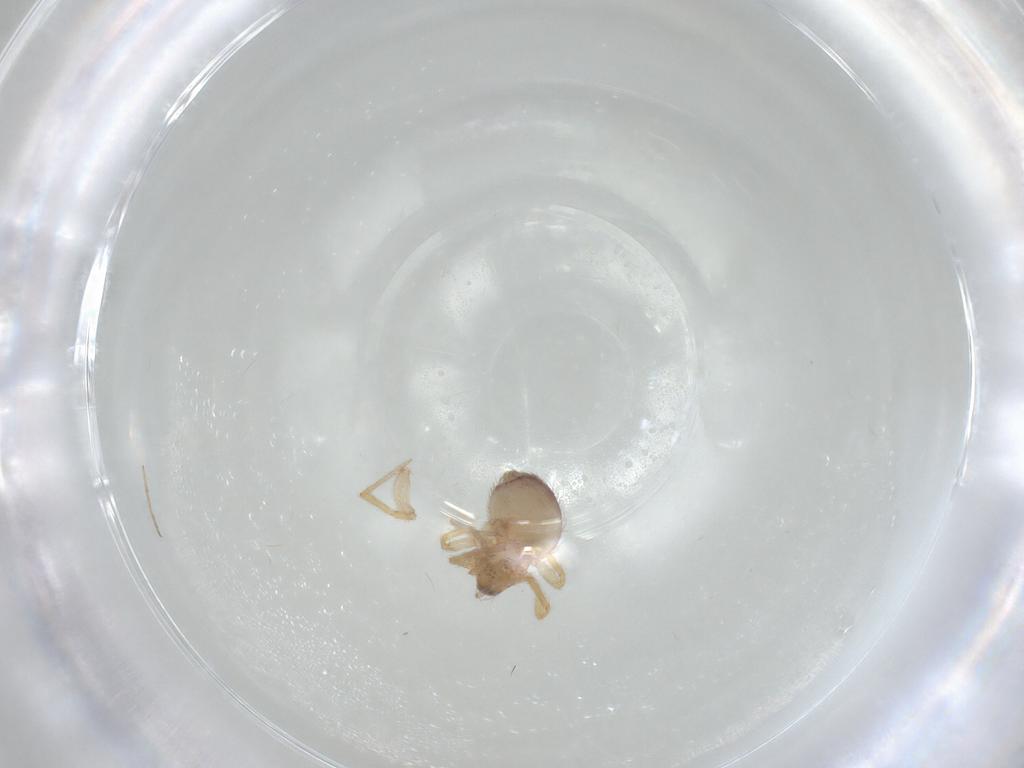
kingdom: Animalia
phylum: Arthropoda
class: Arachnida
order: Araneae
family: Dictynidae
